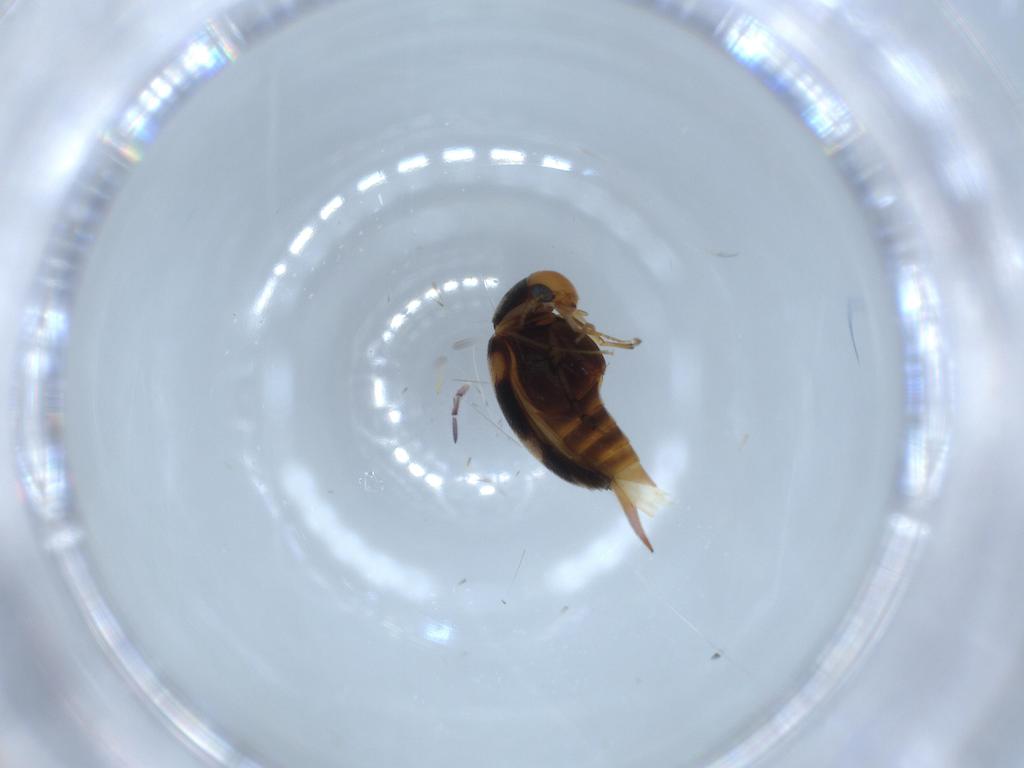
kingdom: Animalia
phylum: Arthropoda
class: Insecta
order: Coleoptera
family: Mordellidae
